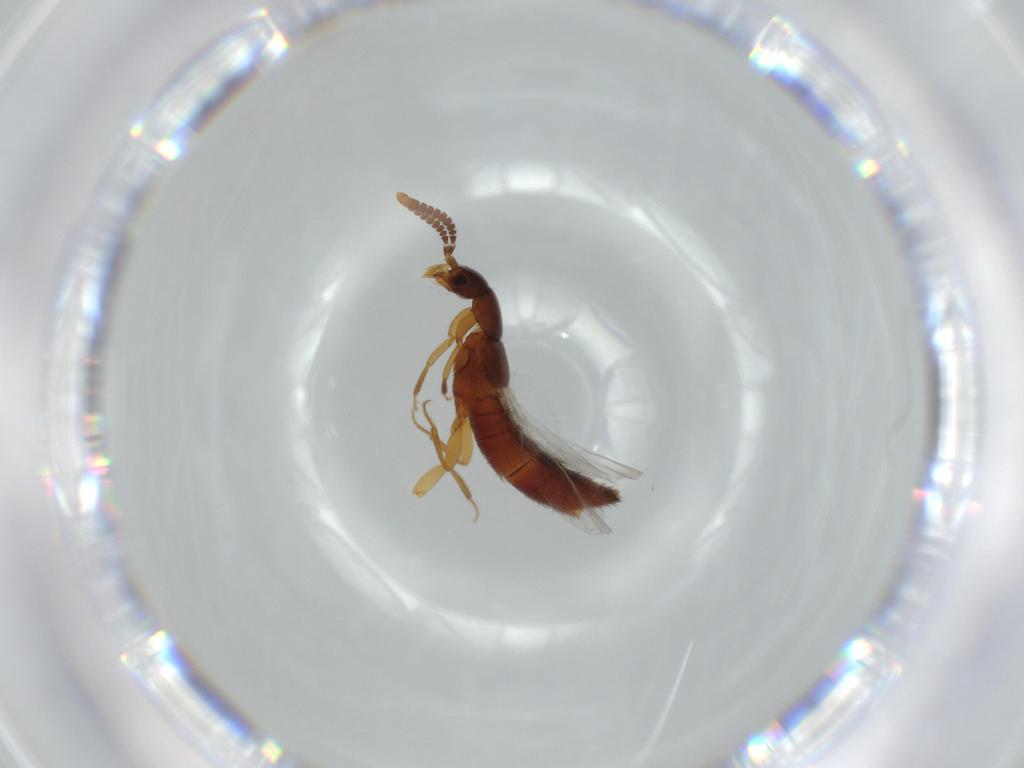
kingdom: Animalia
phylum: Arthropoda
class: Insecta
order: Coleoptera
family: Staphylinidae
